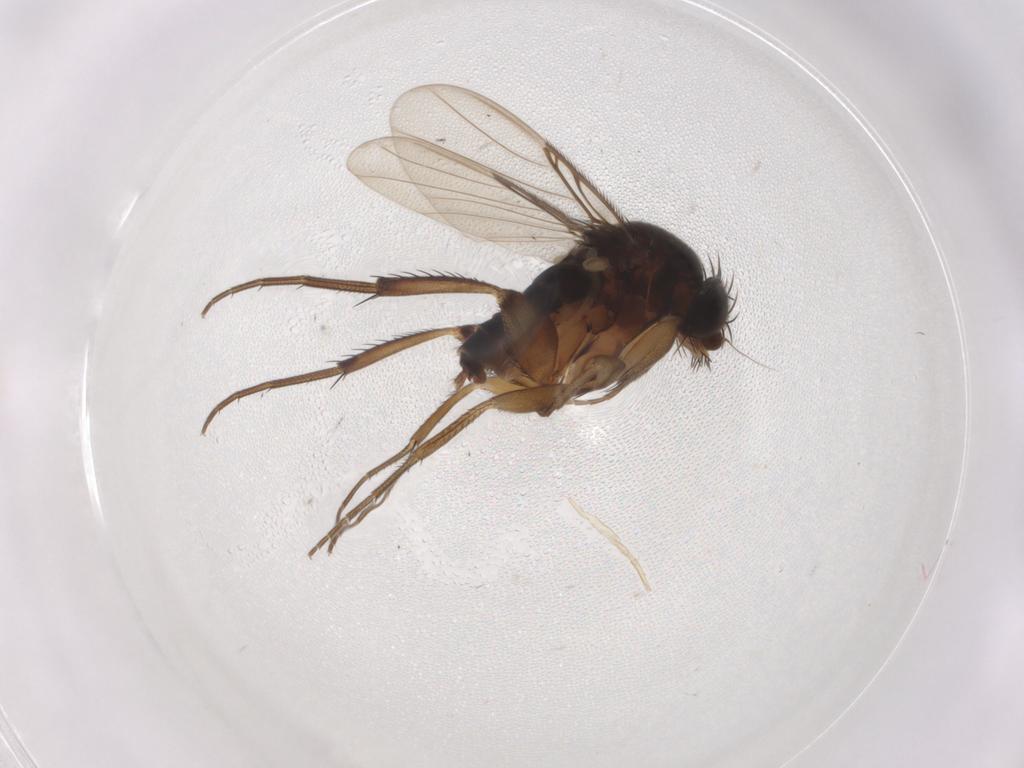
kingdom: Animalia
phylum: Arthropoda
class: Insecta
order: Diptera
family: Phoridae
